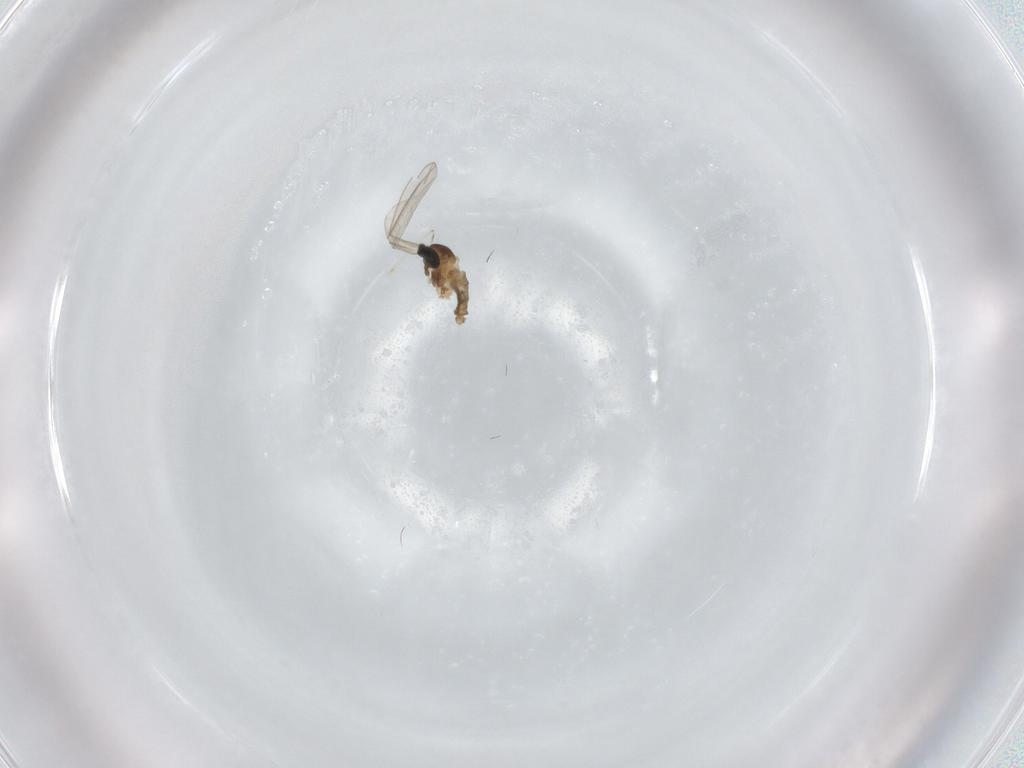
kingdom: Animalia
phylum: Arthropoda
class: Insecta
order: Diptera
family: Cecidomyiidae
